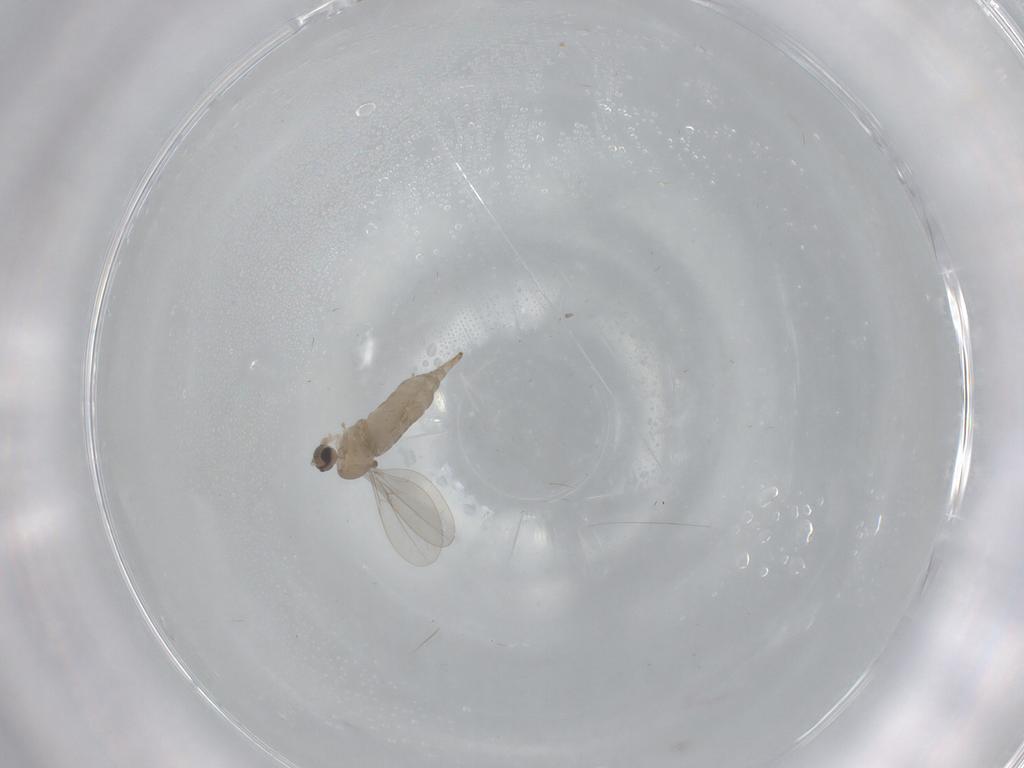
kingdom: Animalia
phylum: Arthropoda
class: Insecta
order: Diptera
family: Cecidomyiidae
